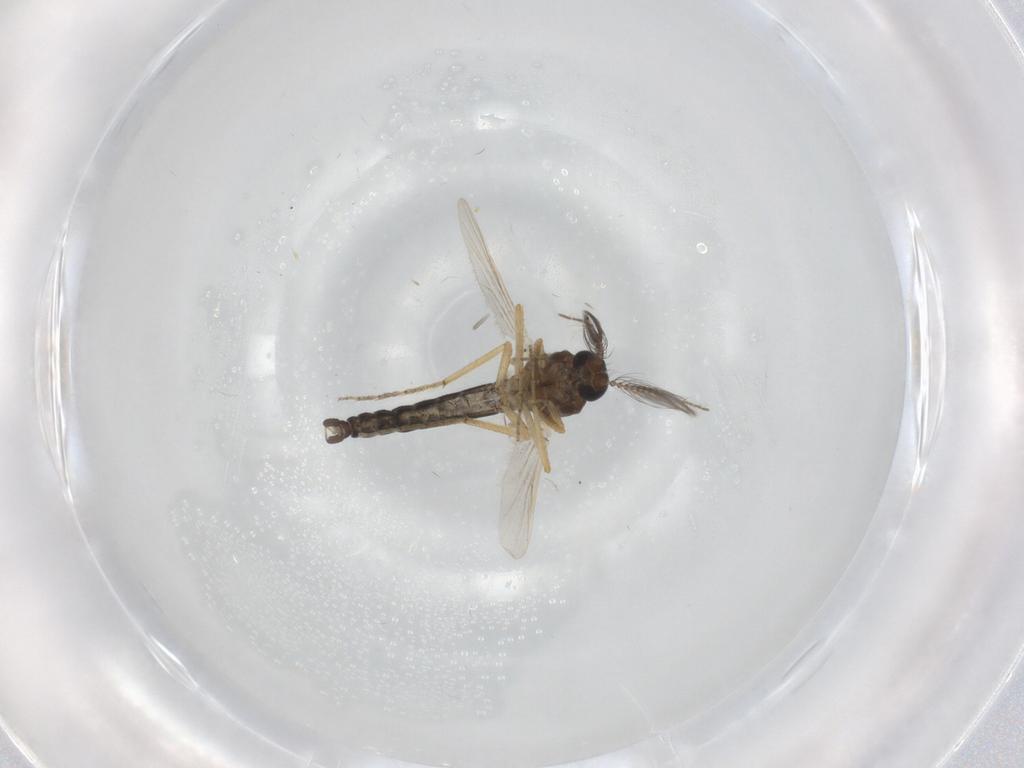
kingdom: Animalia
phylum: Arthropoda
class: Insecta
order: Diptera
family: Ceratopogonidae
